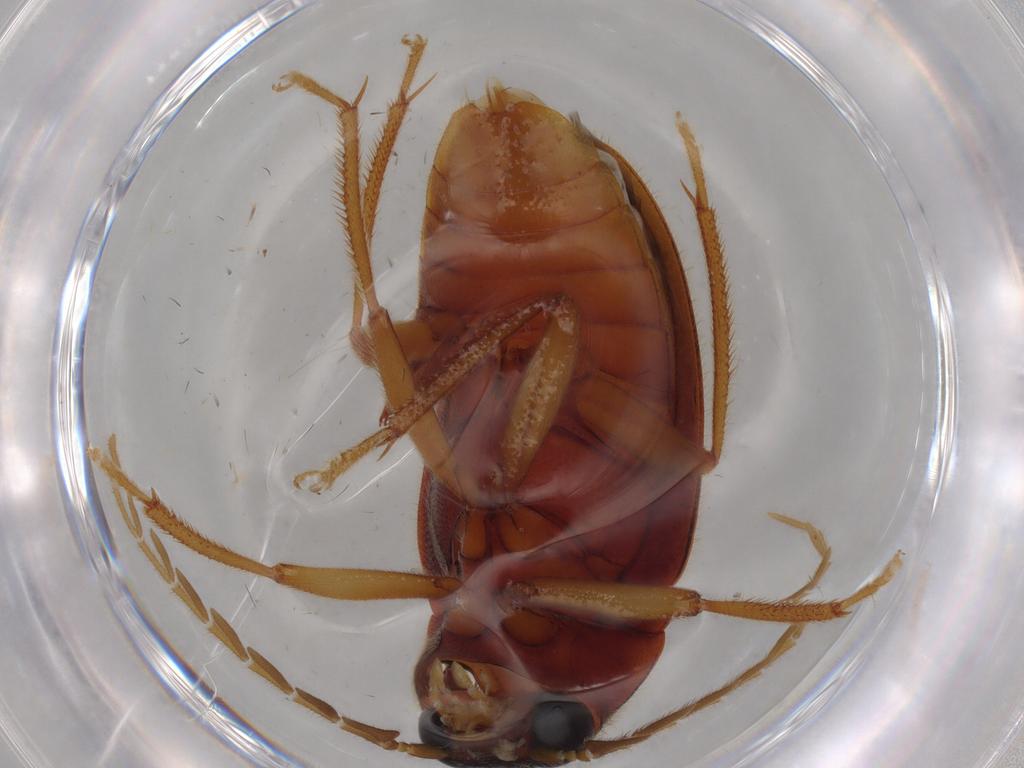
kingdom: Animalia
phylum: Arthropoda
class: Insecta
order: Coleoptera
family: Ptilodactylidae
